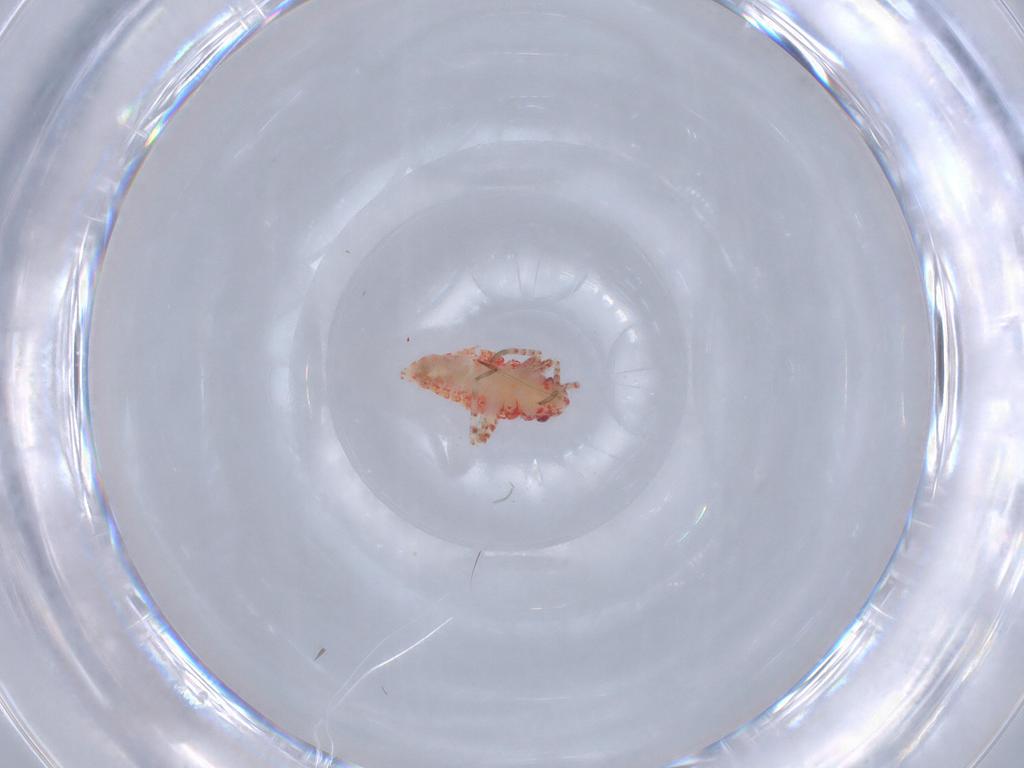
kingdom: Animalia
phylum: Arthropoda
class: Insecta
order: Hemiptera
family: Miridae
